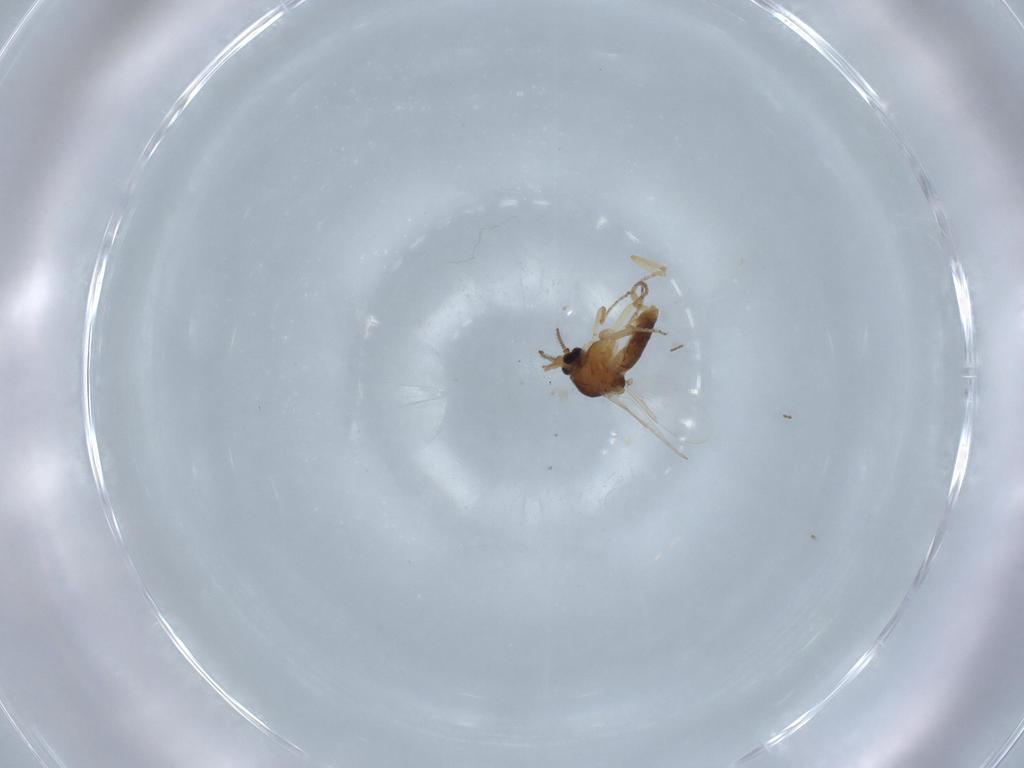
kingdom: Animalia
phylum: Arthropoda
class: Insecta
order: Diptera
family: Ceratopogonidae
